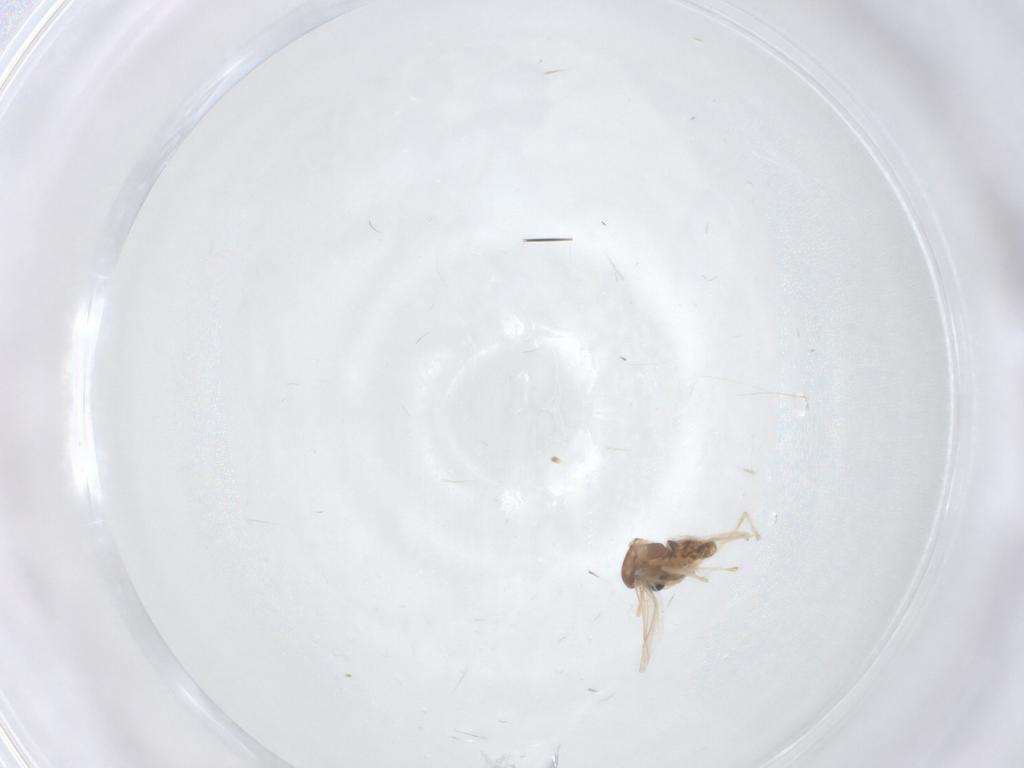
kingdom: Animalia
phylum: Arthropoda
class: Insecta
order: Diptera
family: Chironomidae
